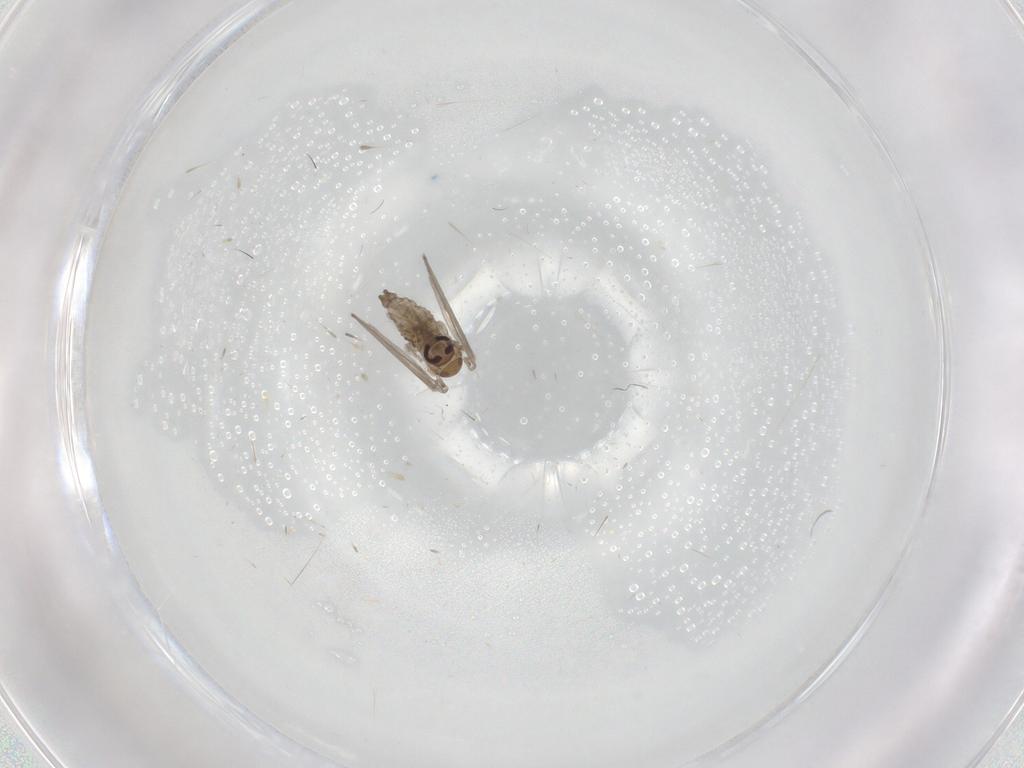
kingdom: Animalia
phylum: Arthropoda
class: Insecta
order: Diptera
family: Psychodidae
